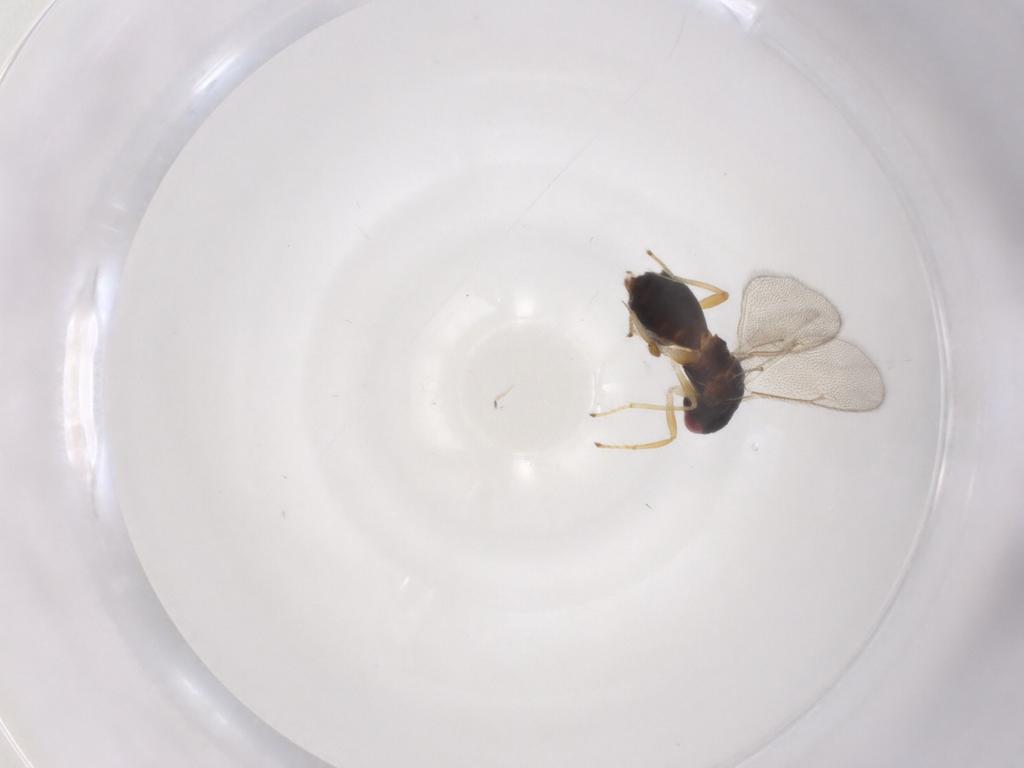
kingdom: Animalia
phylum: Arthropoda
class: Insecta
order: Hymenoptera
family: Eulophidae
